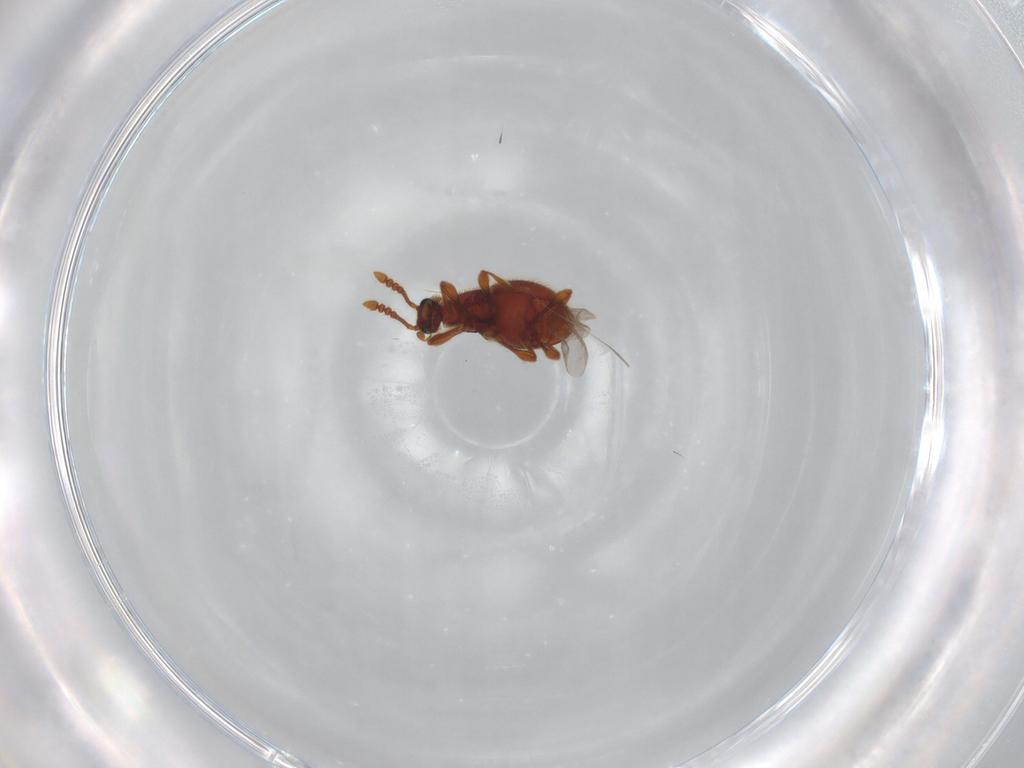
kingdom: Animalia
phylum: Arthropoda
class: Insecta
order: Coleoptera
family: Staphylinidae
